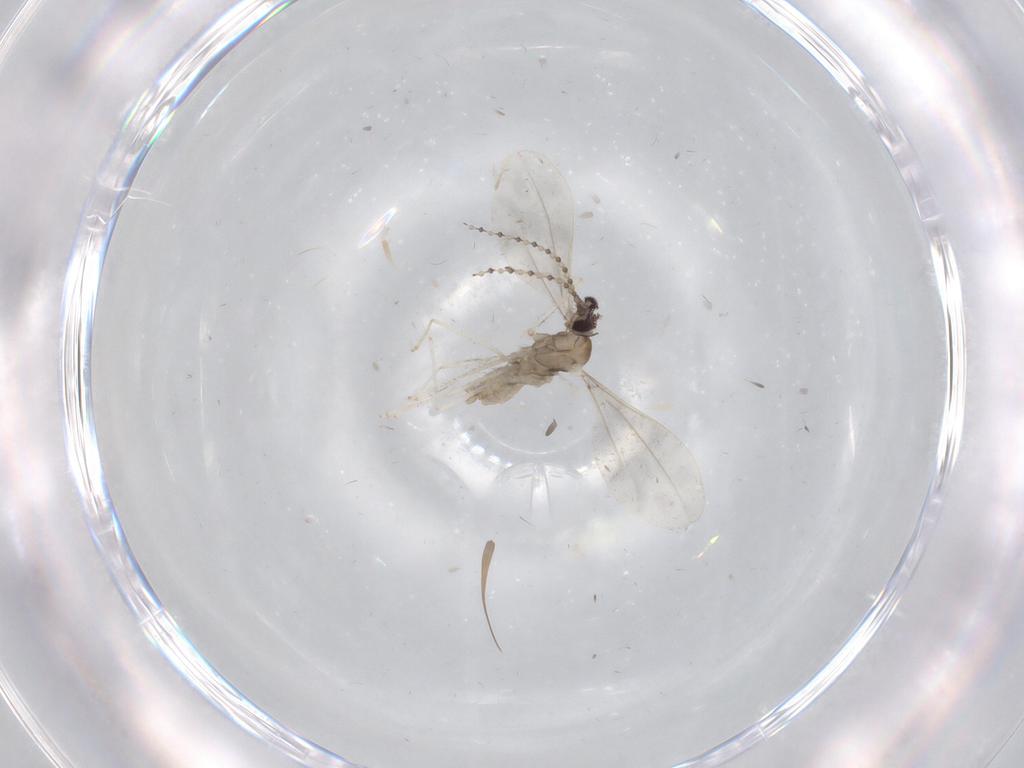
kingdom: Animalia
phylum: Arthropoda
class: Insecta
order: Diptera
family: Cecidomyiidae
